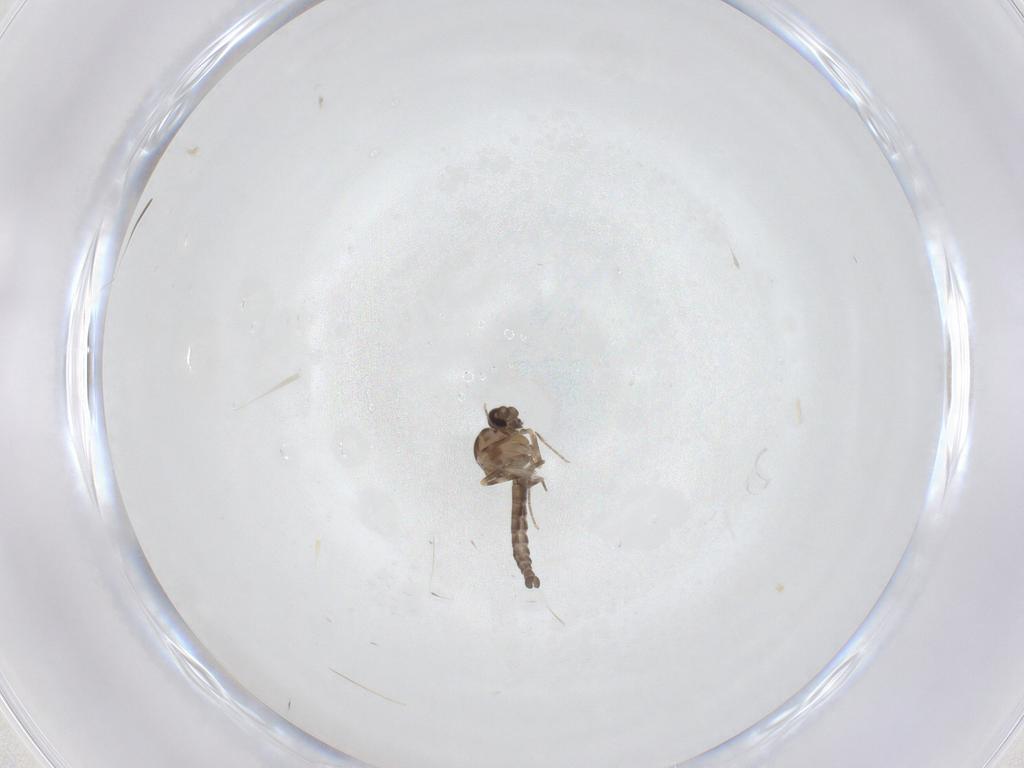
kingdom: Animalia
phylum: Arthropoda
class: Insecta
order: Diptera
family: Ceratopogonidae
